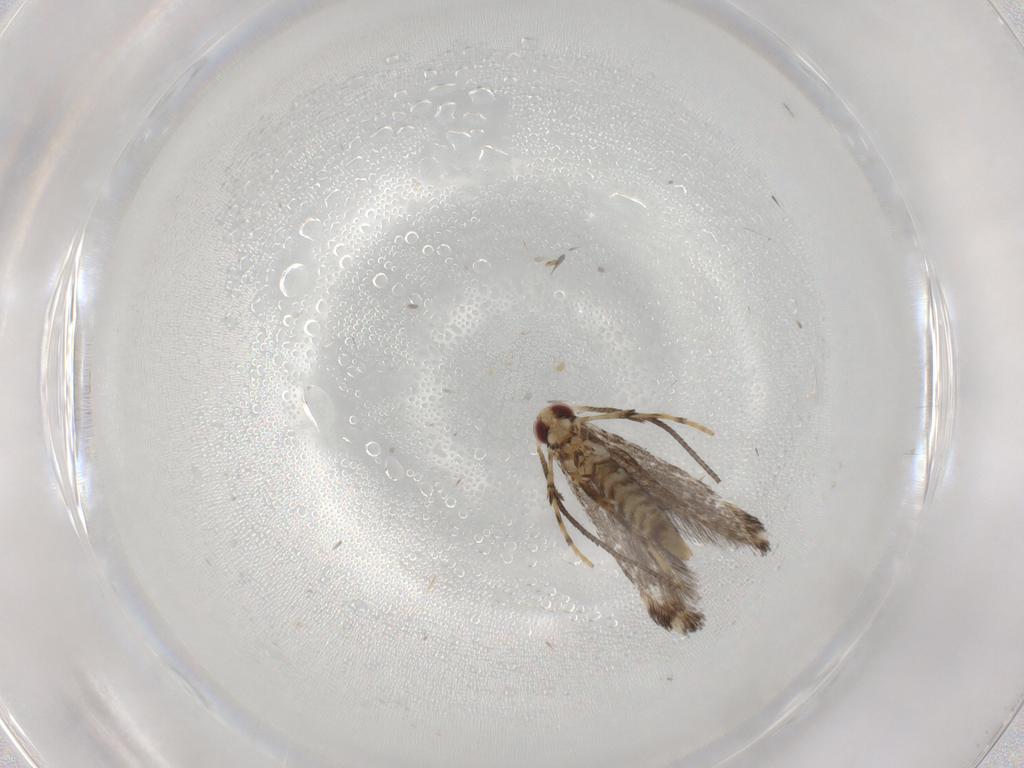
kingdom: Animalia
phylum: Arthropoda
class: Insecta
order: Lepidoptera
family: Gracillariidae
